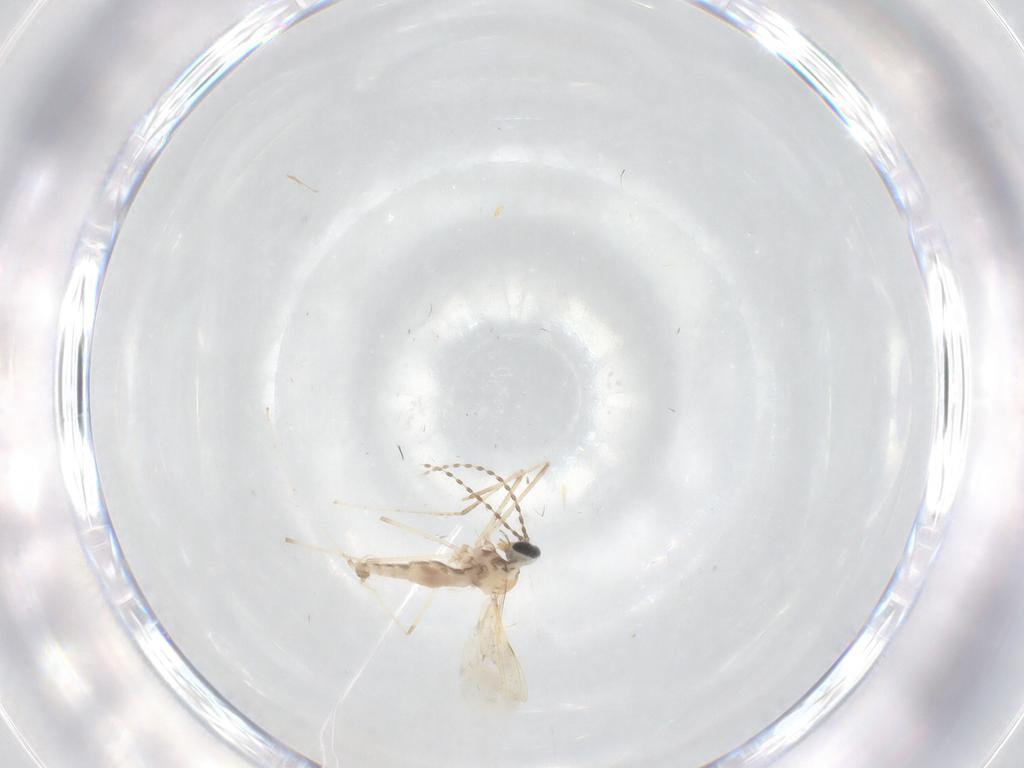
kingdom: Animalia
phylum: Arthropoda
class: Insecta
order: Diptera
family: Cecidomyiidae
